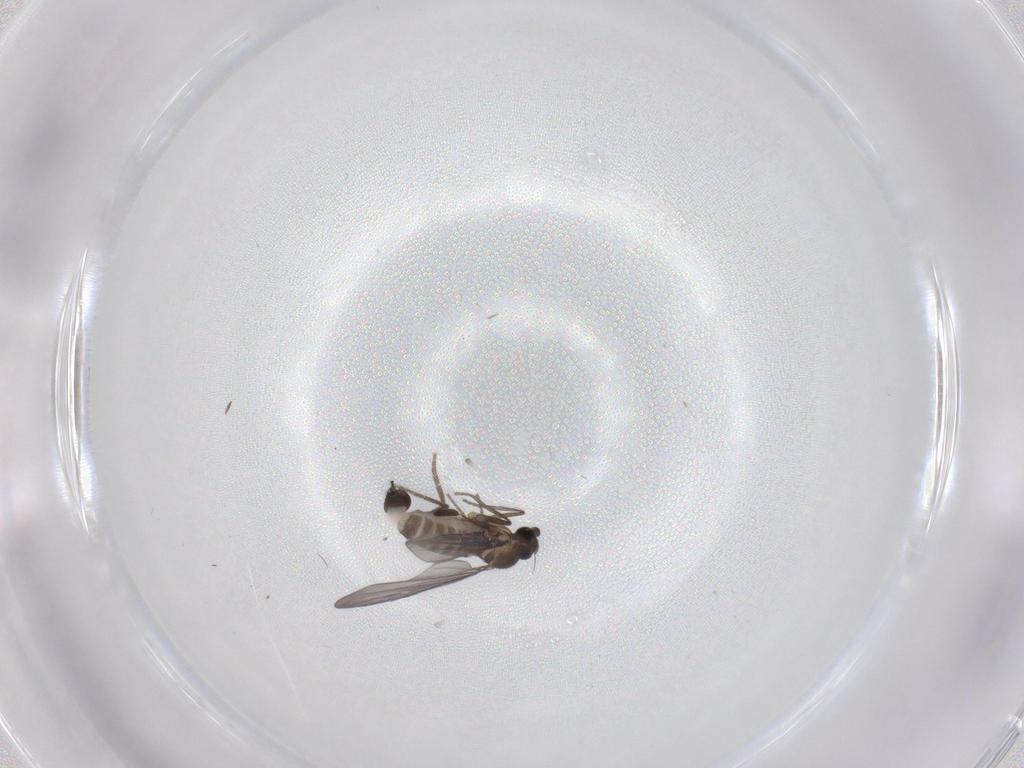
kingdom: Animalia
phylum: Arthropoda
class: Insecta
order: Diptera
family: Phoridae
